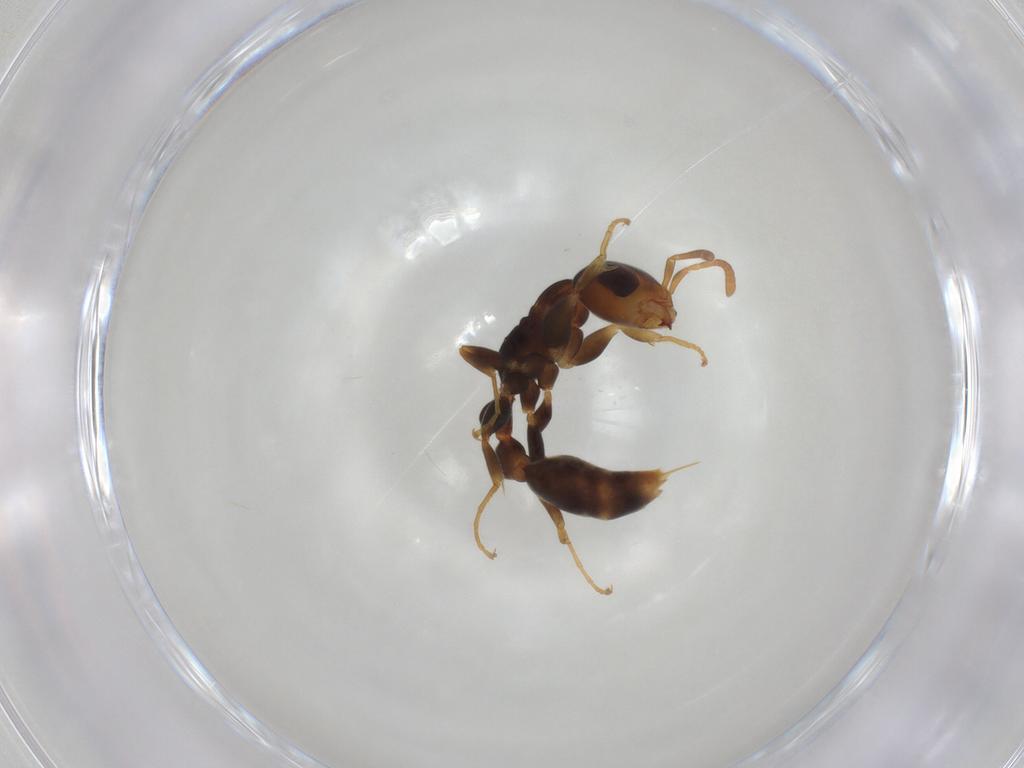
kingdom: Animalia
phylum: Arthropoda
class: Insecta
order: Hymenoptera
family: Formicidae
